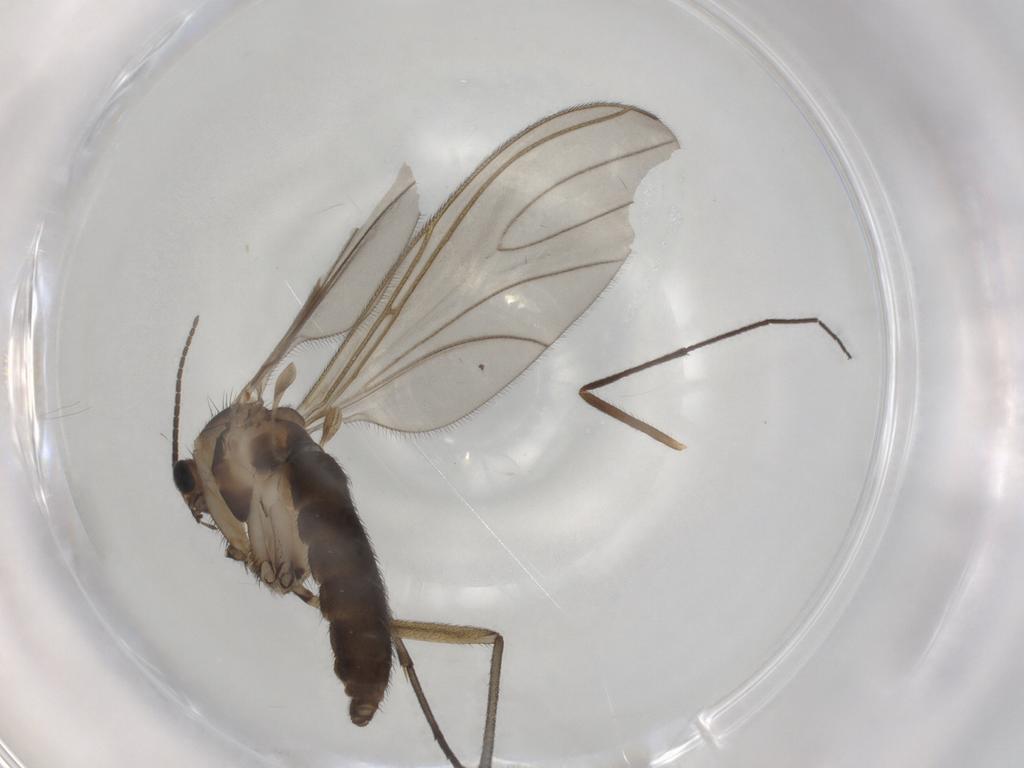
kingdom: Animalia
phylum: Arthropoda
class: Insecta
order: Diptera
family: Sciaridae
